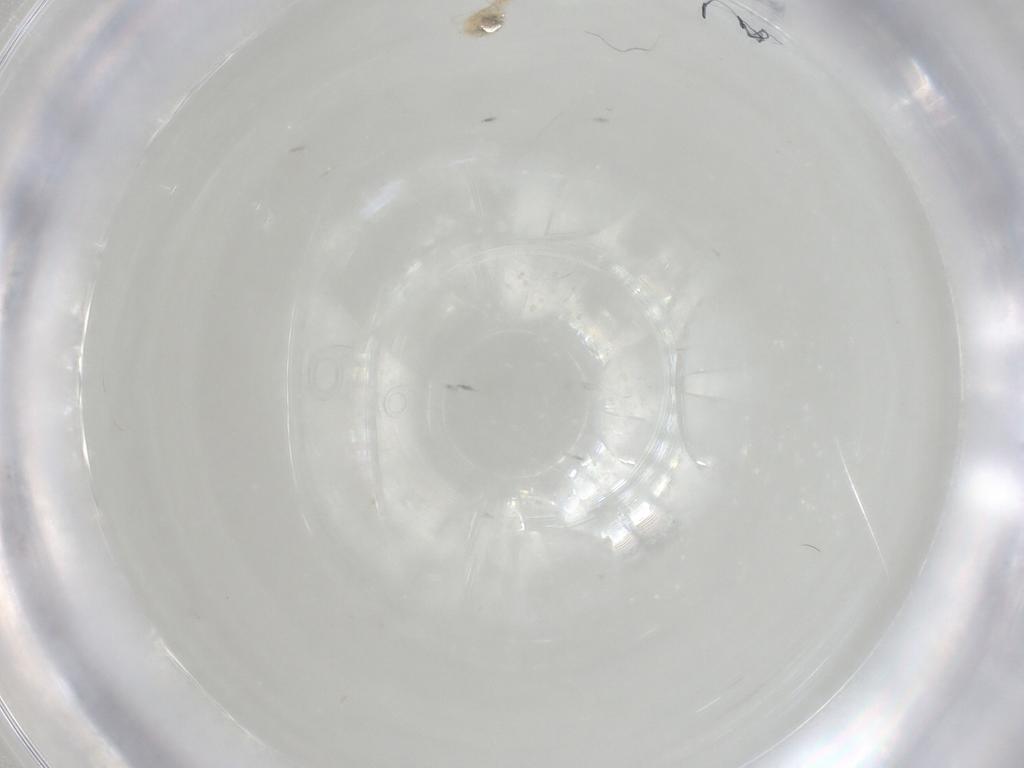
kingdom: Animalia
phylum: Arthropoda
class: Arachnida
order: Trombidiformes
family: Cunaxidae
